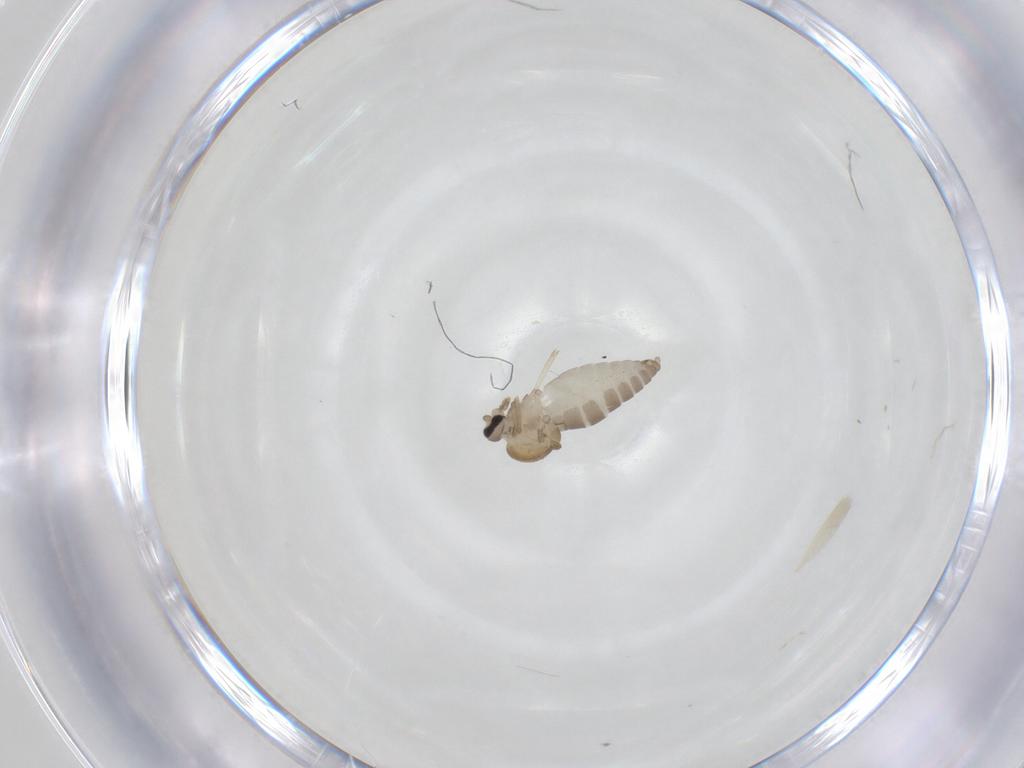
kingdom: Animalia
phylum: Arthropoda
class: Insecta
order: Diptera
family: Ceratopogonidae
